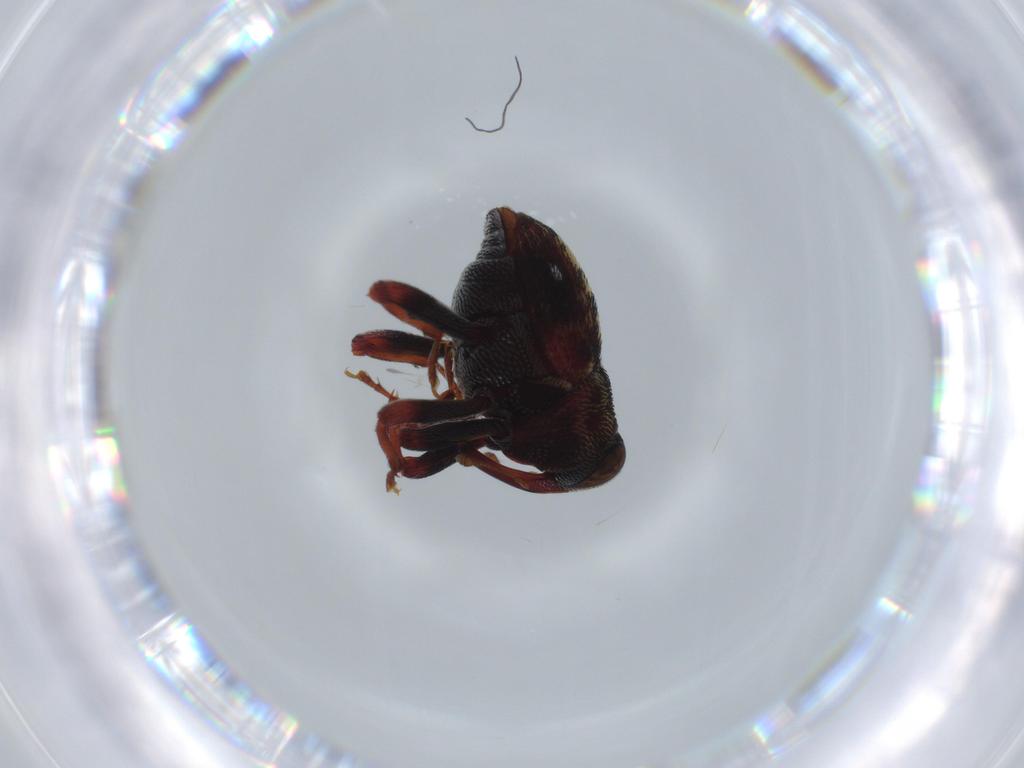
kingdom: Animalia
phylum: Arthropoda
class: Insecta
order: Coleoptera
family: Curculionidae
